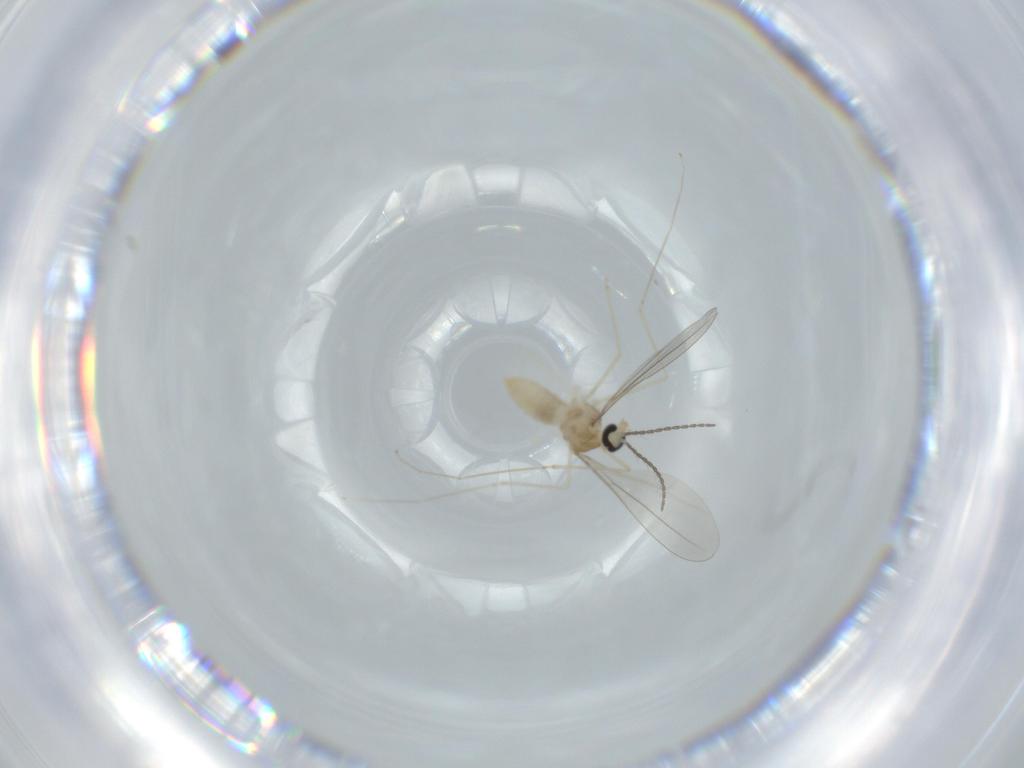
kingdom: Animalia
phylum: Arthropoda
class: Insecta
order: Diptera
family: Cecidomyiidae
